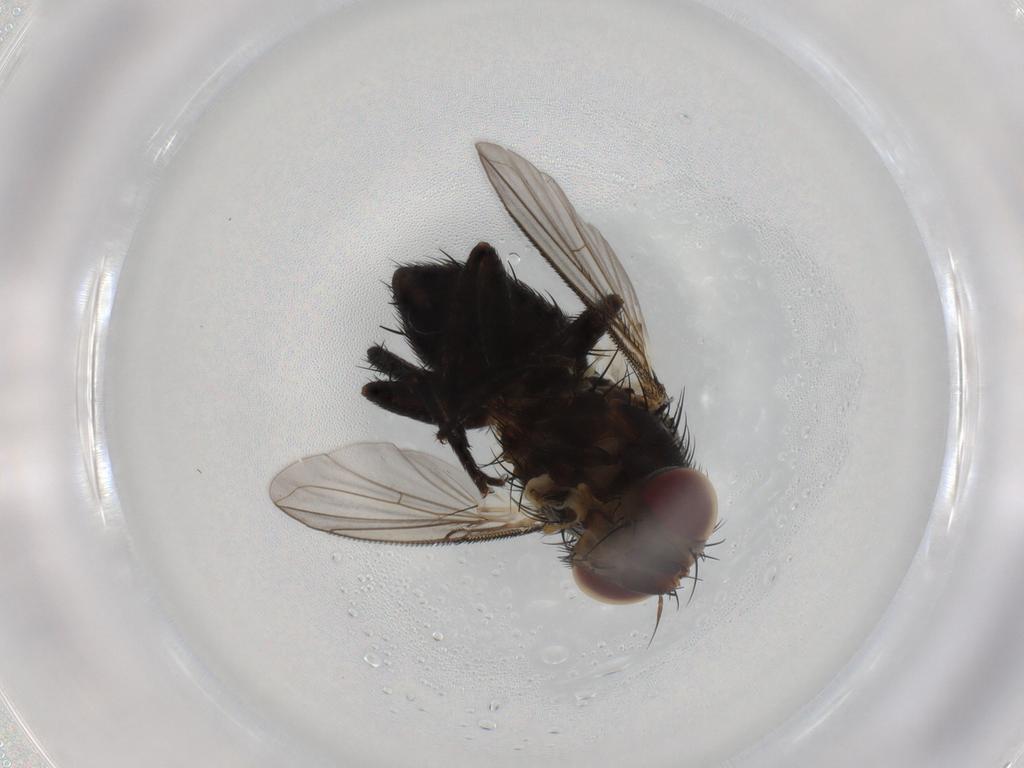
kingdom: Animalia
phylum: Arthropoda
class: Insecta
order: Diptera
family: Tachinidae
